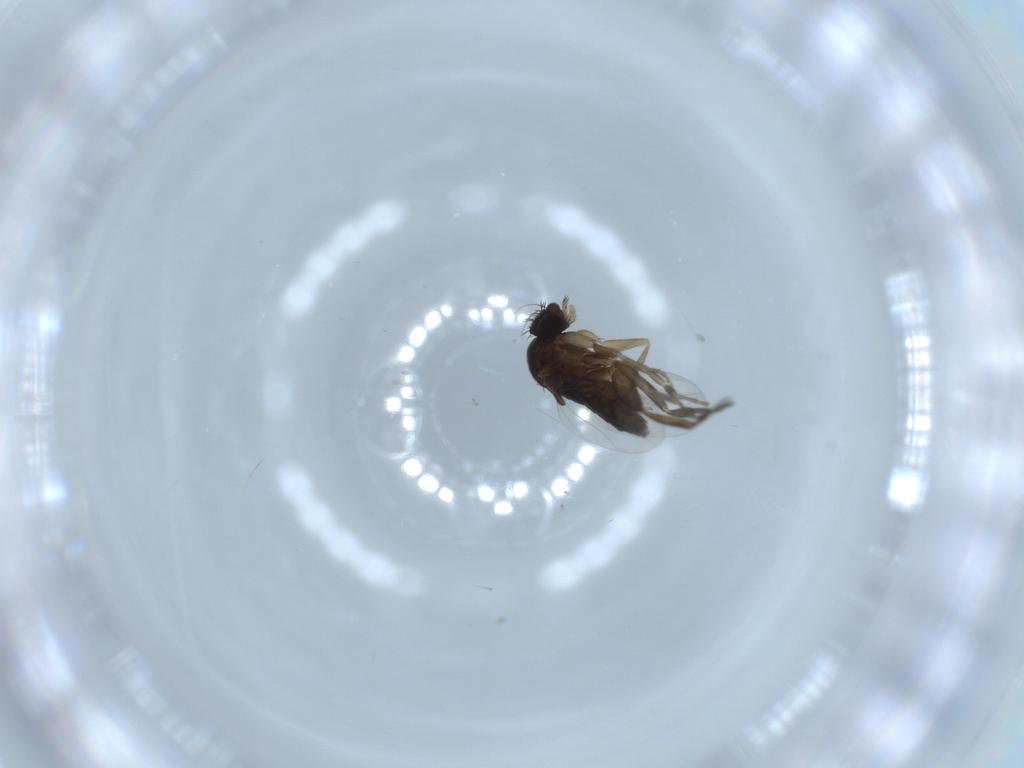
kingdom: Animalia
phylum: Arthropoda
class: Insecta
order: Diptera
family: Phoridae
